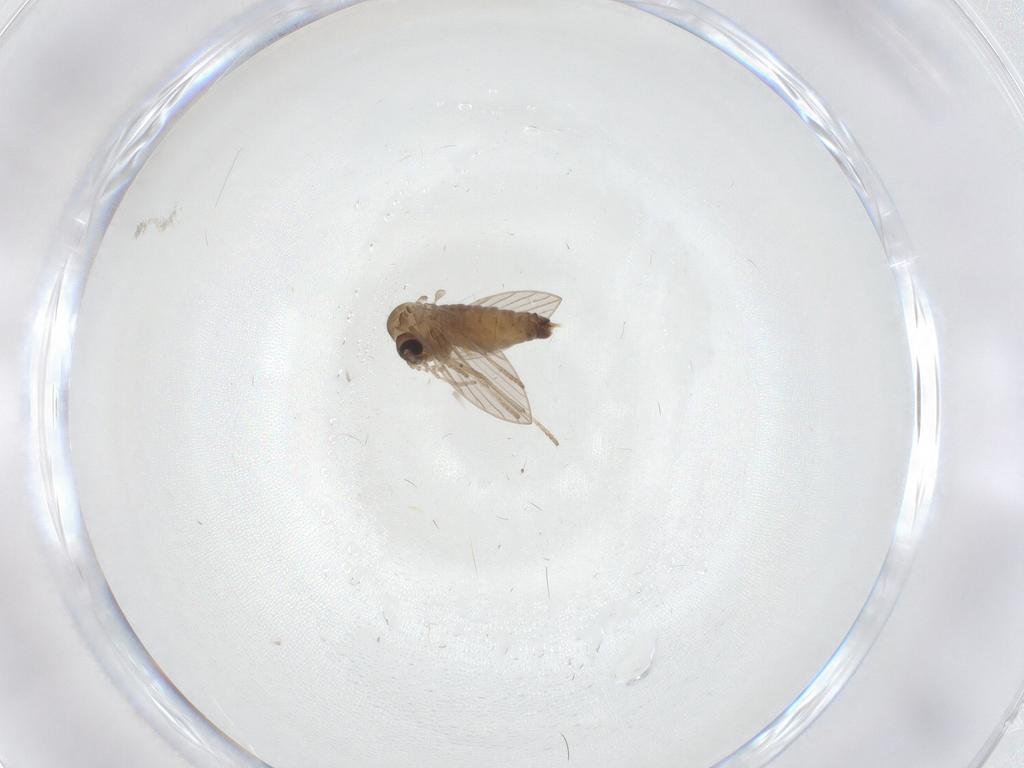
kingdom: Animalia
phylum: Arthropoda
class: Insecta
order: Diptera
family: Psychodidae
